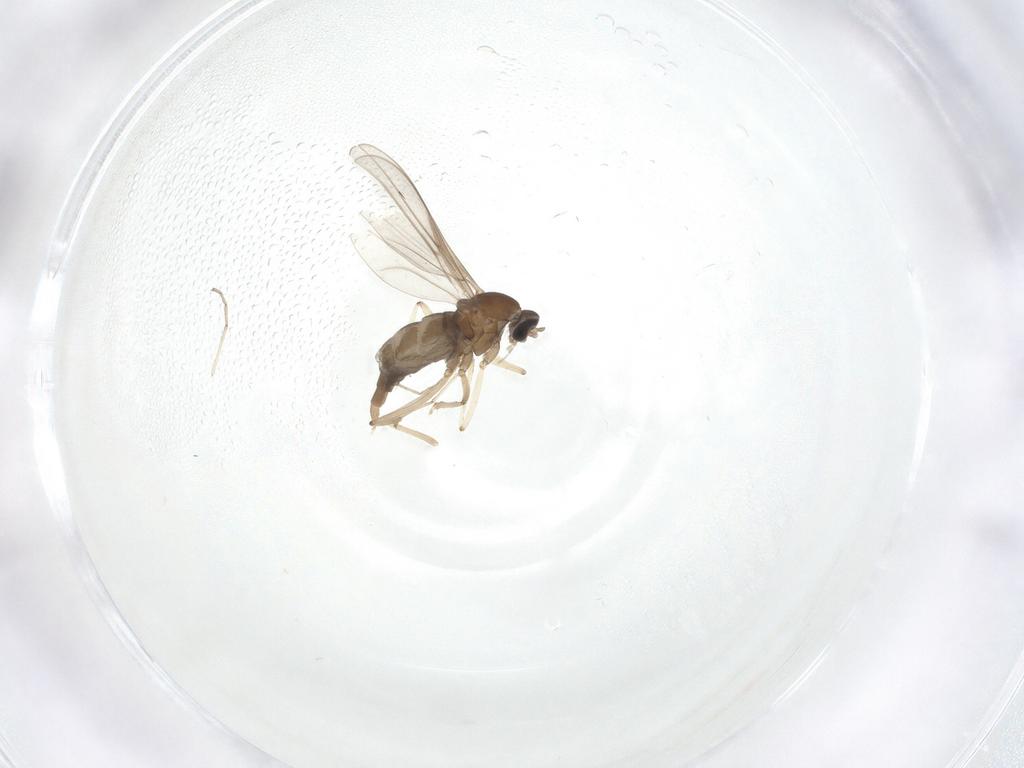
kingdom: Animalia
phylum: Arthropoda
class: Insecta
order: Diptera
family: Cecidomyiidae
